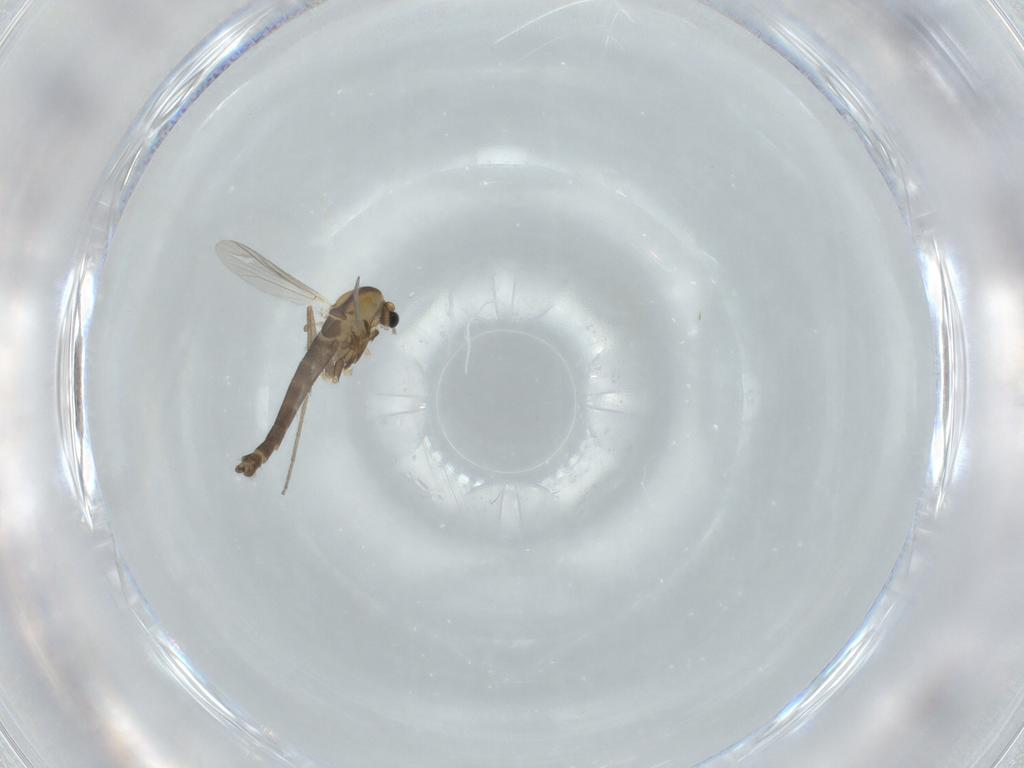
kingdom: Animalia
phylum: Arthropoda
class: Insecta
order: Diptera
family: Chironomidae
